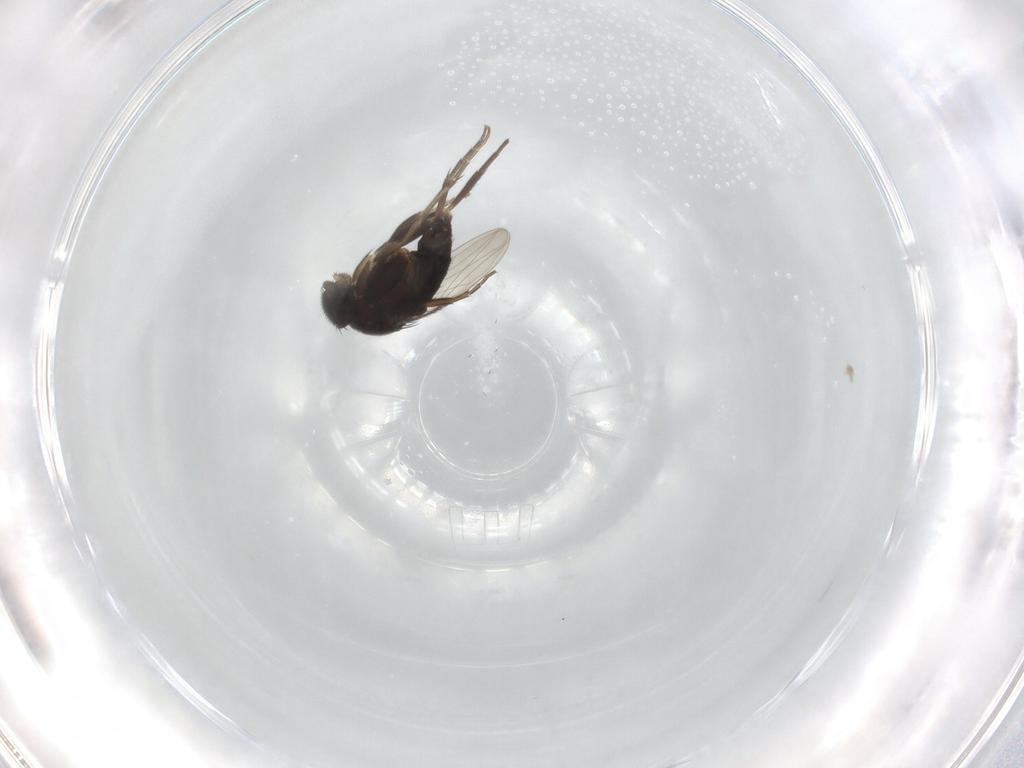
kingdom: Animalia
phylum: Arthropoda
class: Insecta
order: Diptera
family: Phoridae
